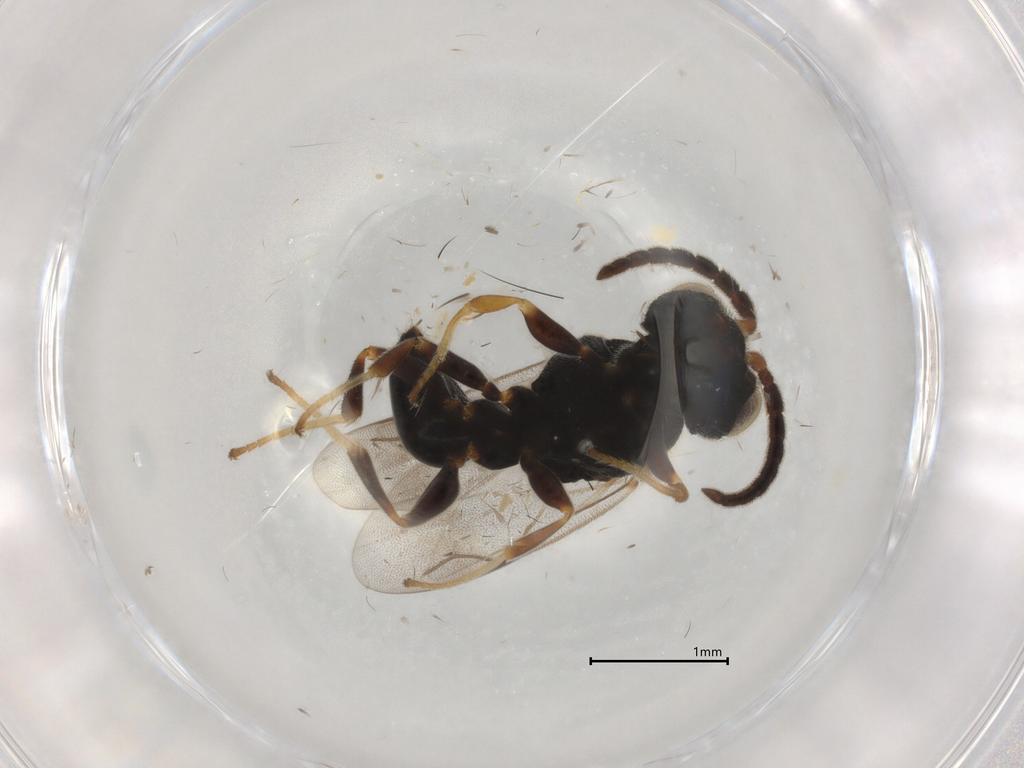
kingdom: Animalia
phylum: Arthropoda
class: Insecta
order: Hymenoptera
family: Dryinidae
